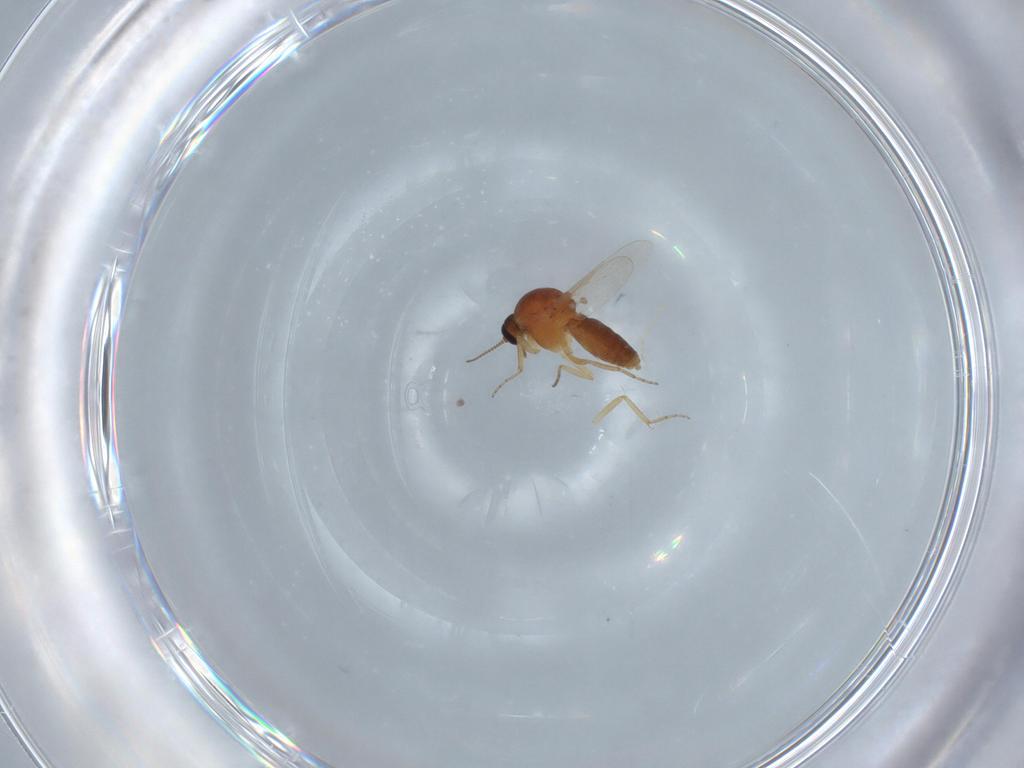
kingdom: Animalia
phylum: Arthropoda
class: Insecta
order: Diptera
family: Ceratopogonidae
